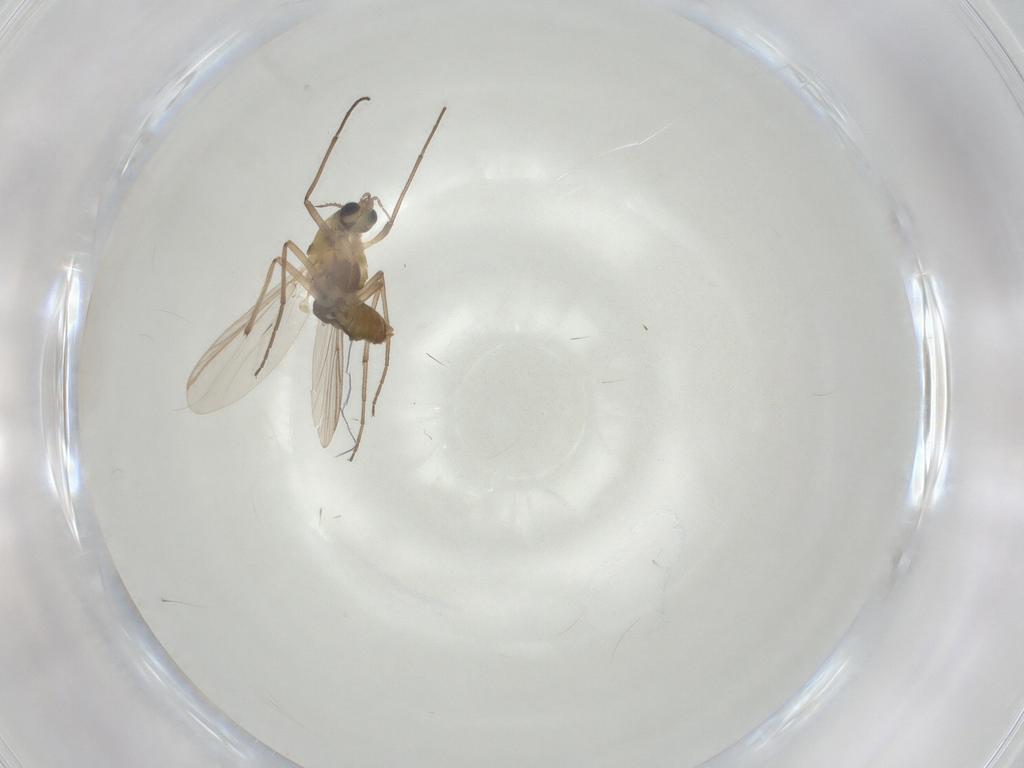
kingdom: Animalia
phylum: Arthropoda
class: Insecta
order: Diptera
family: Chironomidae
